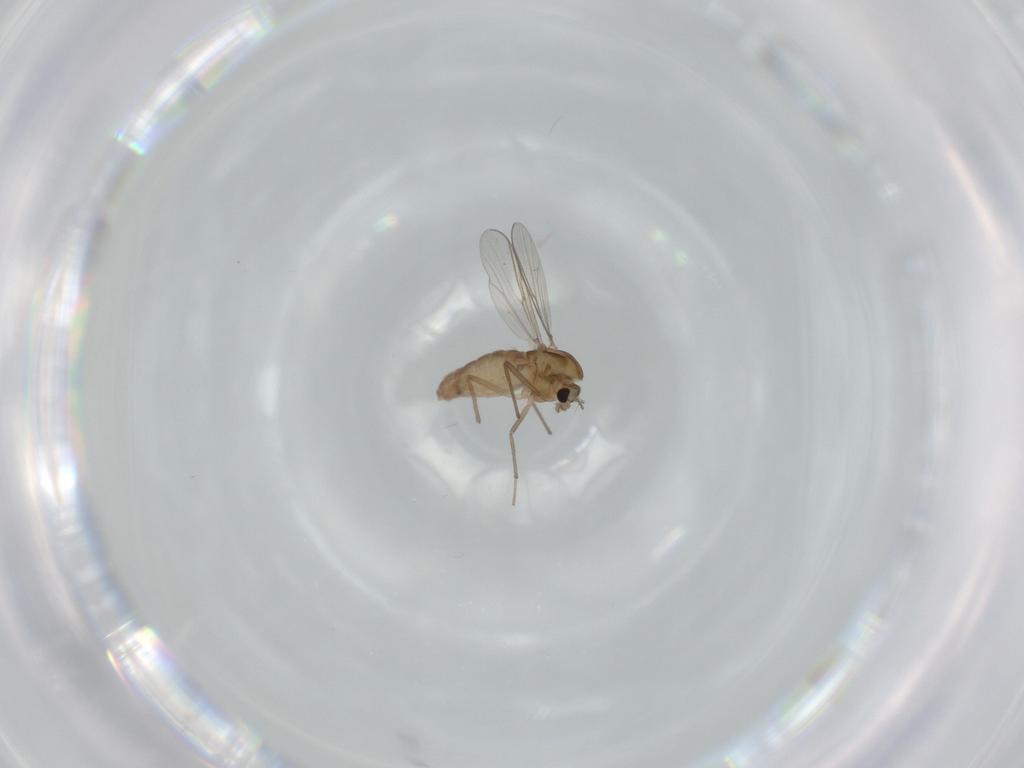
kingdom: Animalia
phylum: Arthropoda
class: Insecta
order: Diptera
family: Chironomidae
